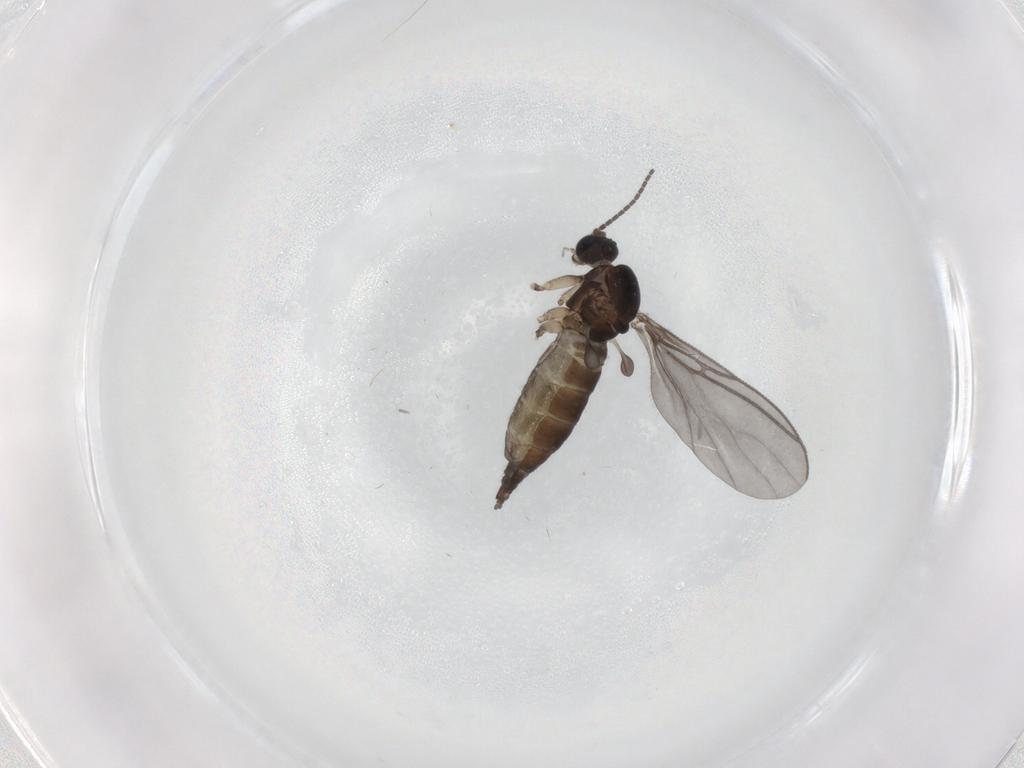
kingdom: Animalia
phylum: Arthropoda
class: Insecta
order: Diptera
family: Sciaridae
